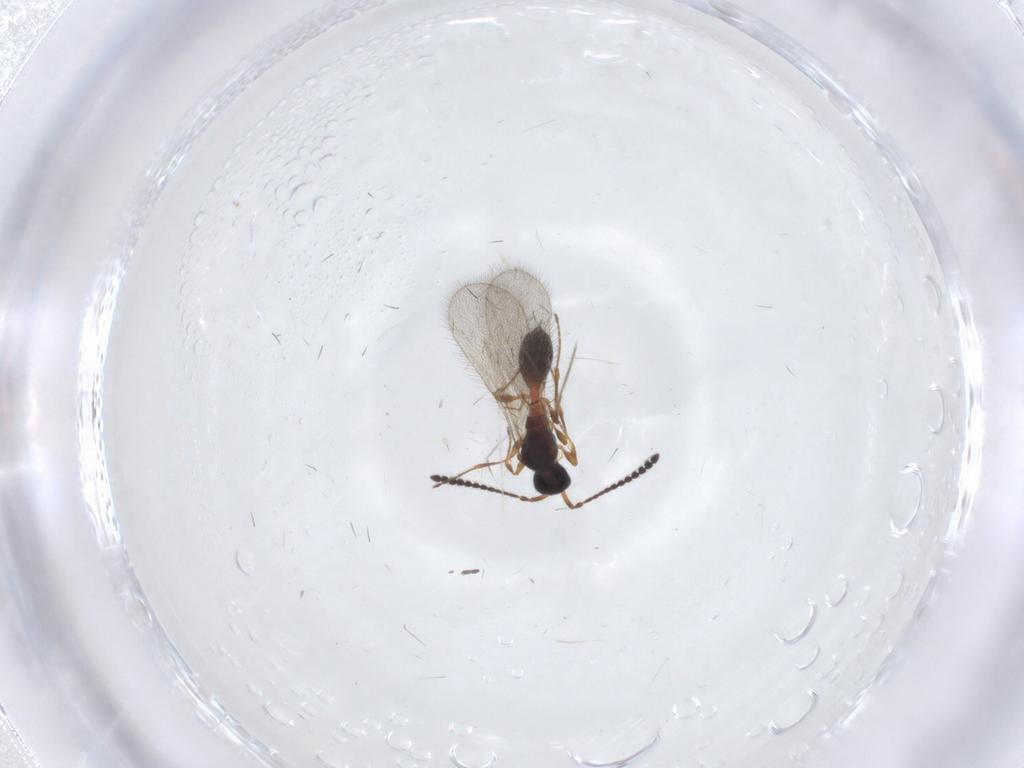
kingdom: Animalia
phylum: Arthropoda
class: Insecta
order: Hymenoptera
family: Diapriidae
